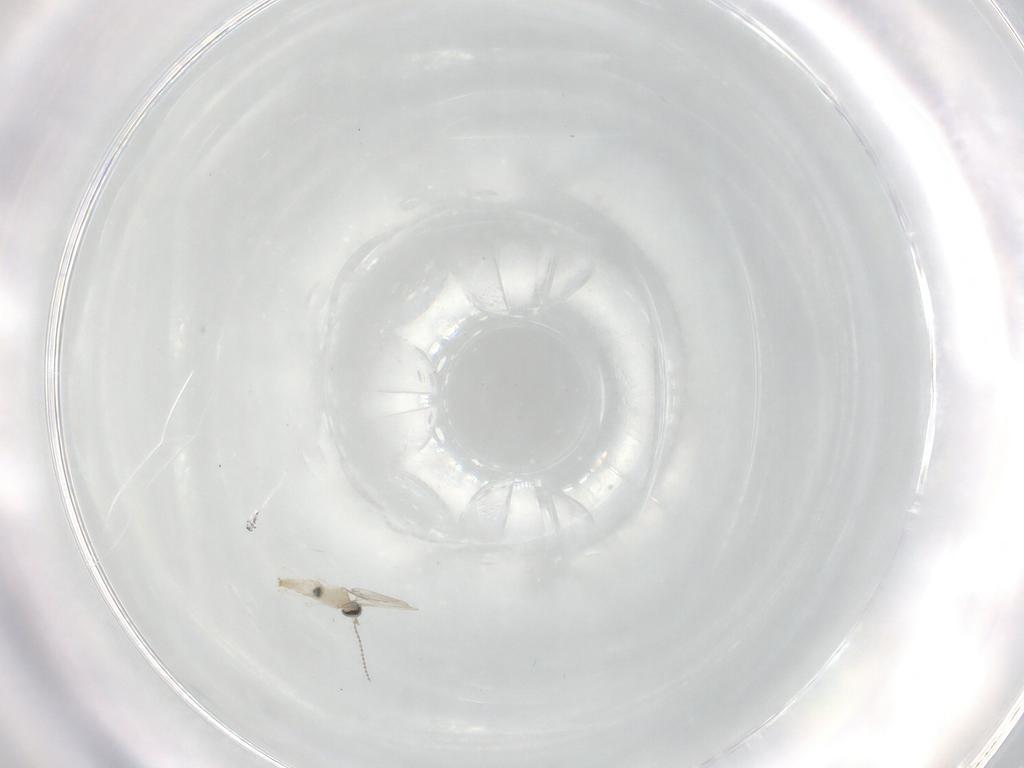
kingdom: Animalia
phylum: Arthropoda
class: Insecta
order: Diptera
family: Cecidomyiidae
